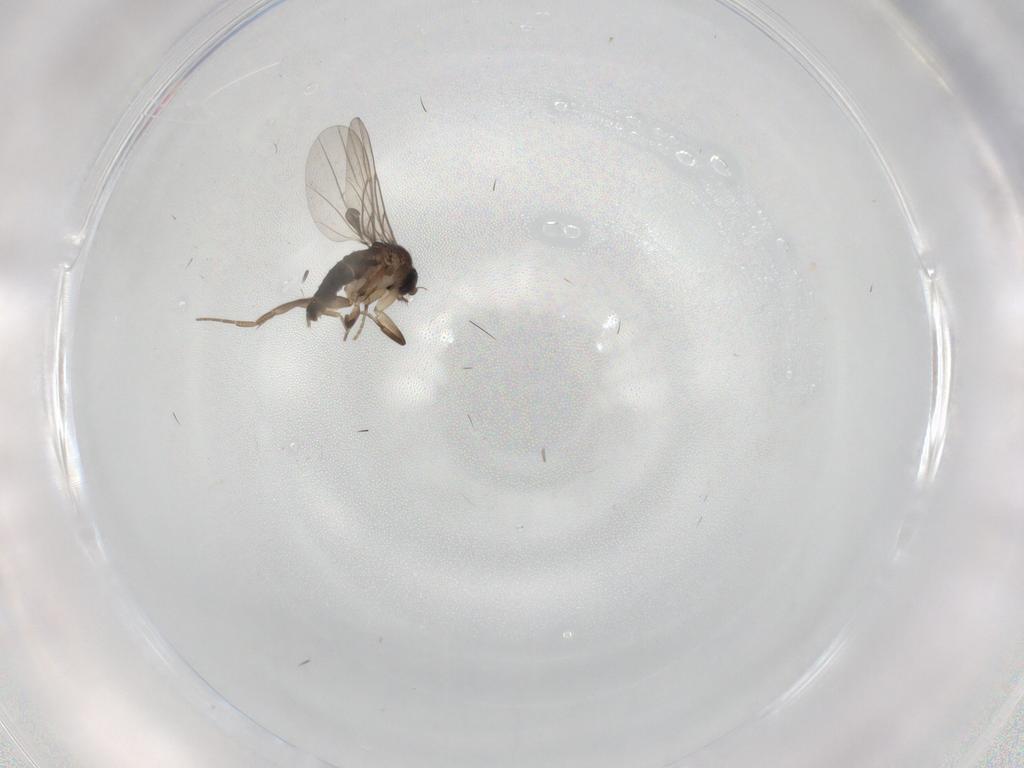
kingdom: Animalia
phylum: Arthropoda
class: Insecta
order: Diptera
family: Phoridae
